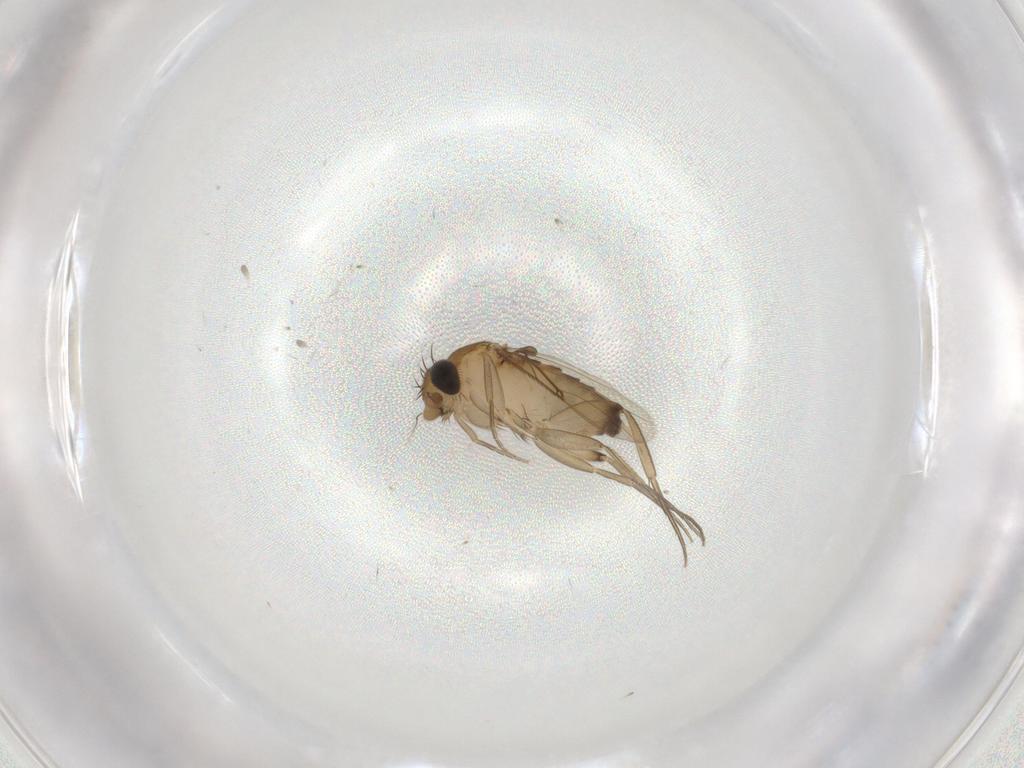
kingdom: Animalia
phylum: Arthropoda
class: Insecta
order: Diptera
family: Phoridae
